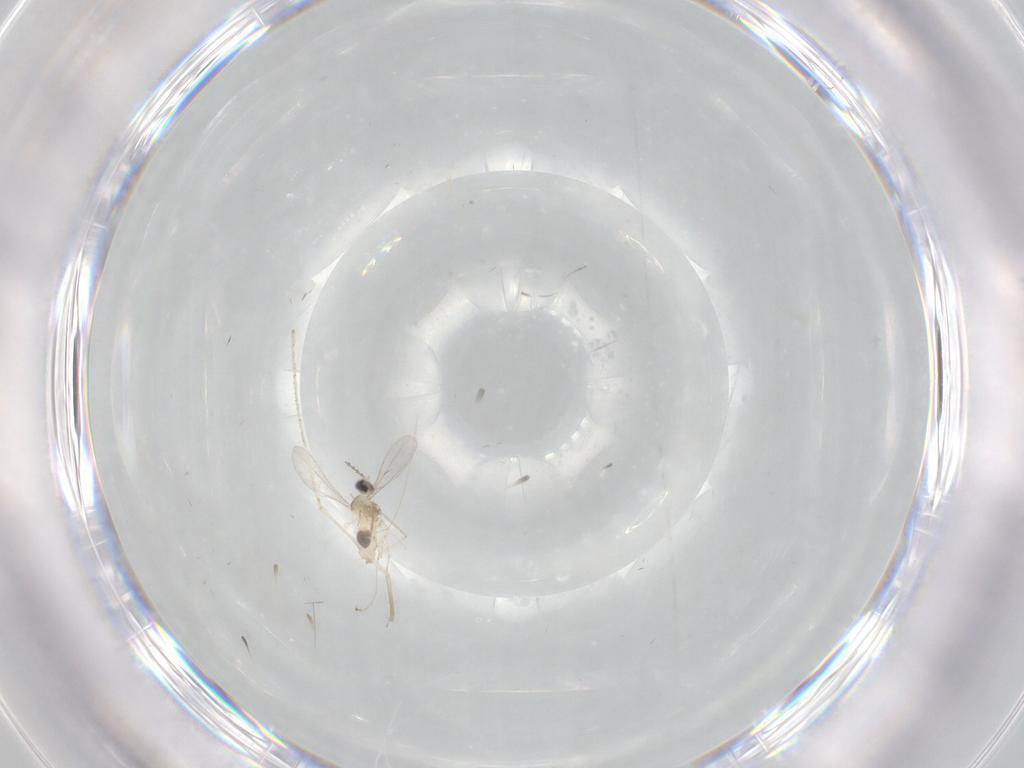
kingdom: Animalia
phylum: Arthropoda
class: Insecta
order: Diptera
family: Cecidomyiidae
